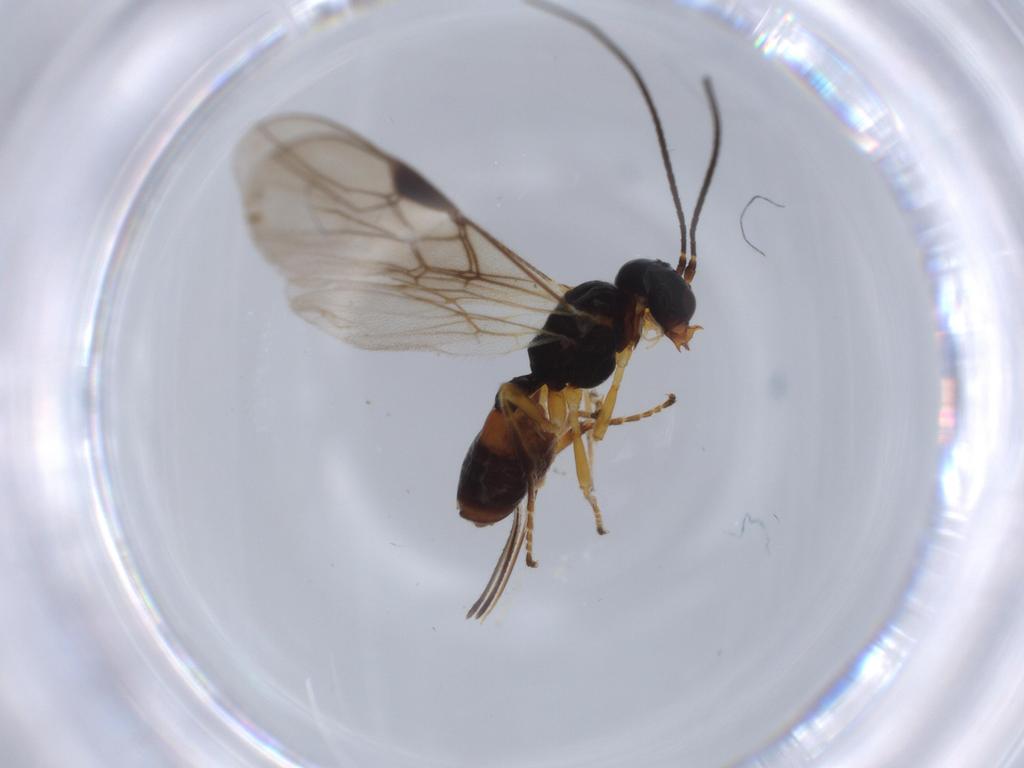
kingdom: Animalia
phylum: Arthropoda
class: Insecta
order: Hymenoptera
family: Braconidae
